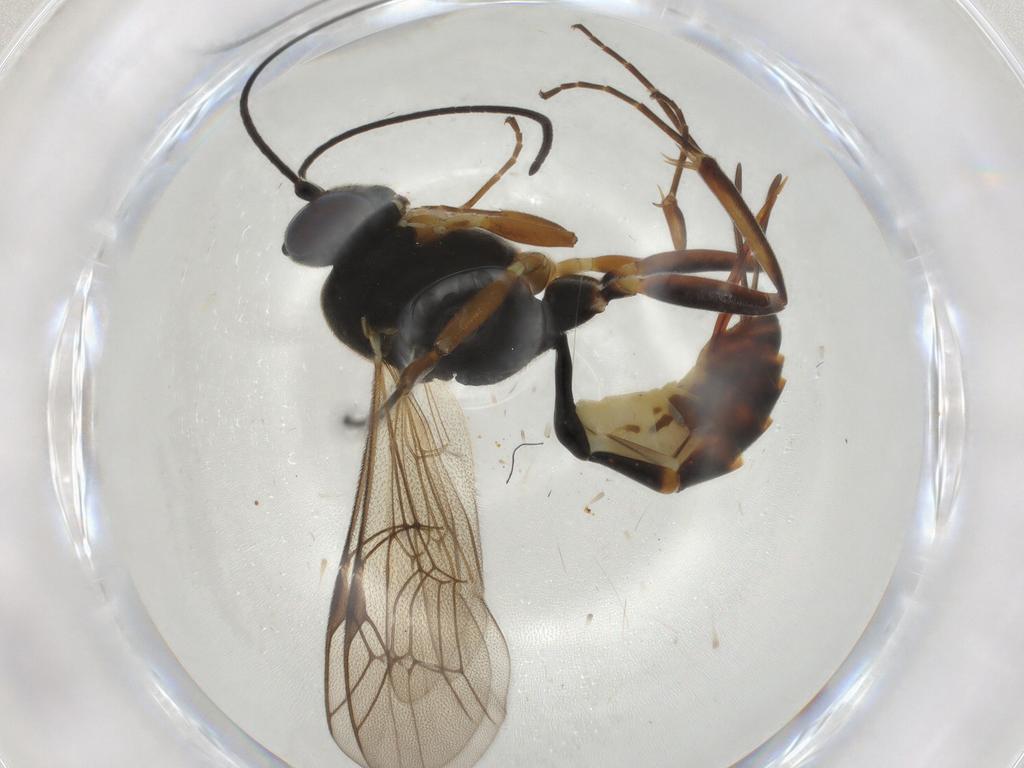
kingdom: Animalia
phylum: Arthropoda
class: Insecta
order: Hymenoptera
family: Ichneumonidae
